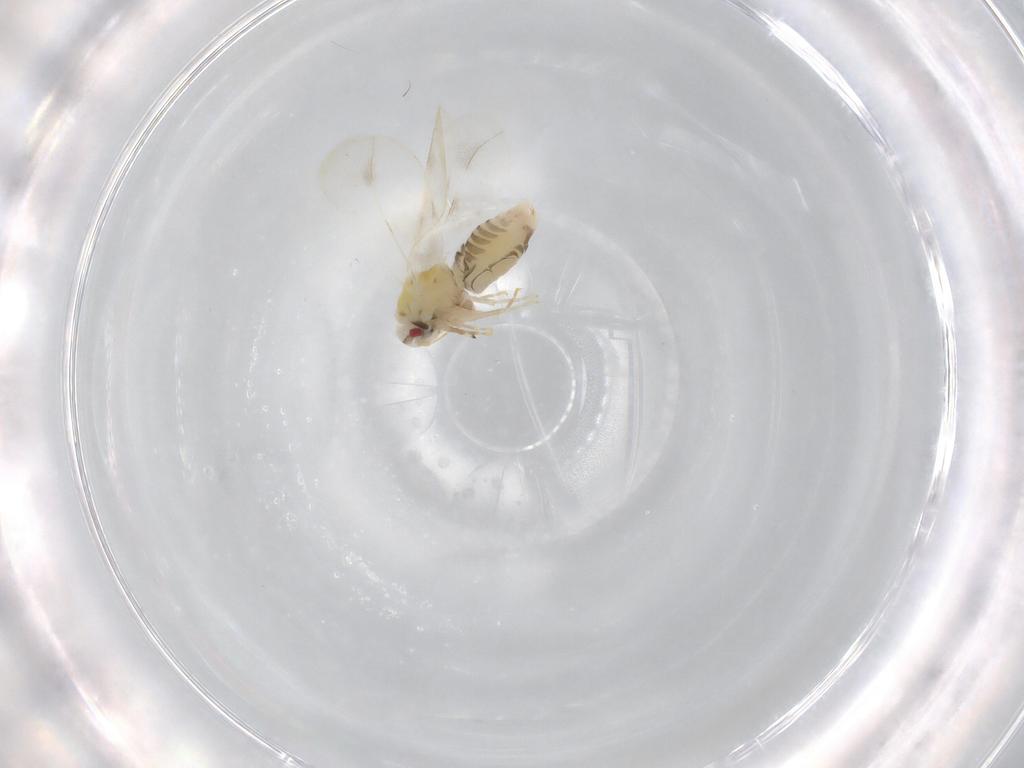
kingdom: Animalia
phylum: Arthropoda
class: Insecta
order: Hemiptera
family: Aleyrodidae
